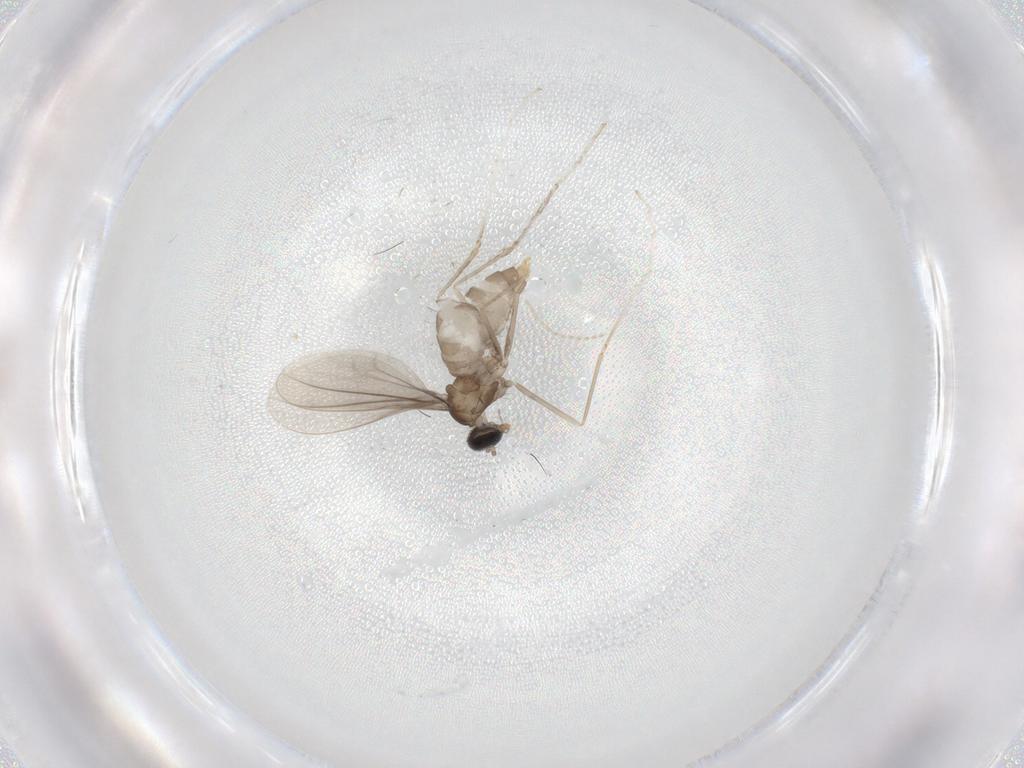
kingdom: Animalia
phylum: Arthropoda
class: Insecta
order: Diptera
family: Cecidomyiidae
